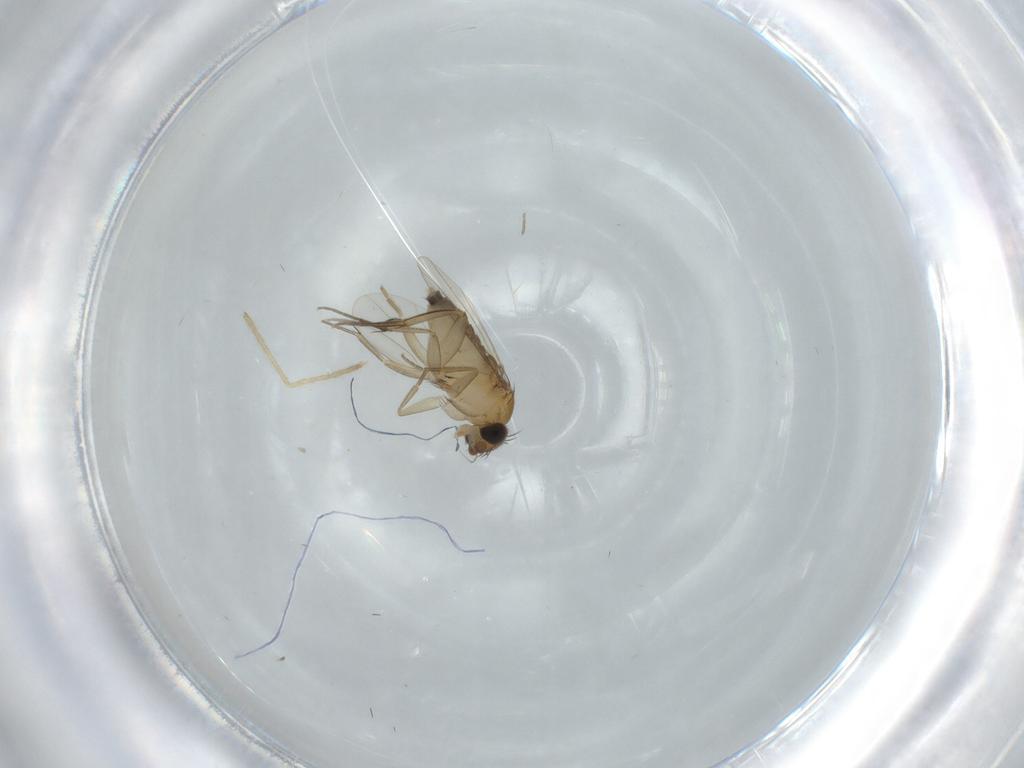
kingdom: Animalia
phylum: Arthropoda
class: Insecta
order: Diptera
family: Phoridae
